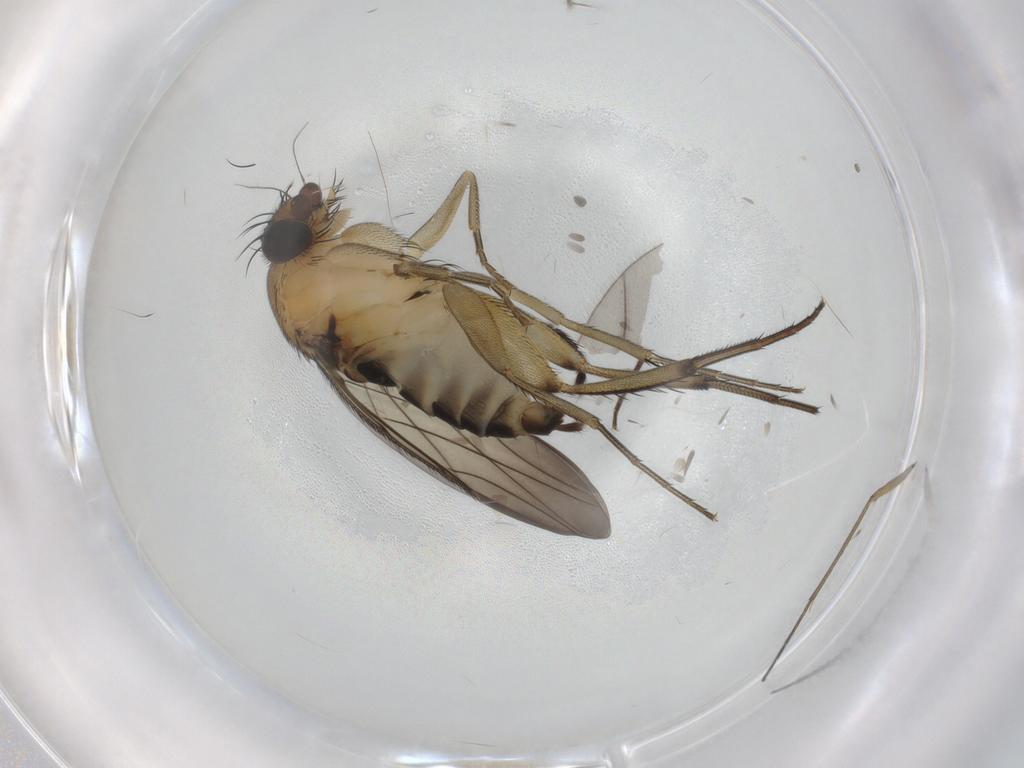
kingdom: Animalia
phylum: Arthropoda
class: Insecta
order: Diptera
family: Phoridae
